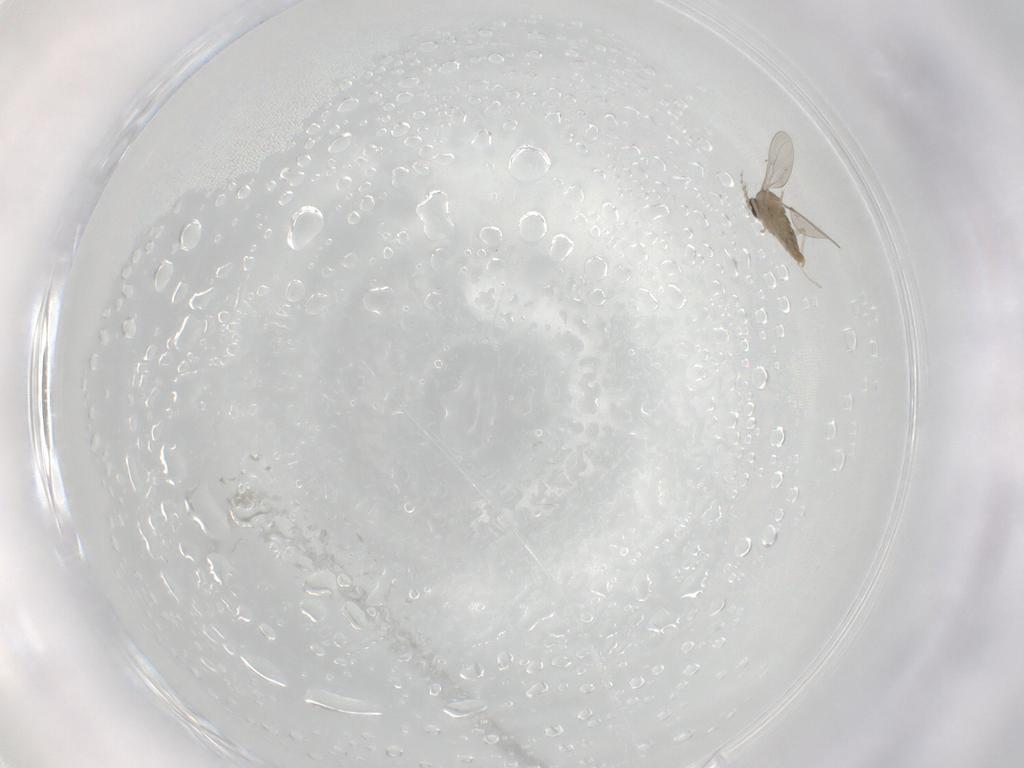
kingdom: Animalia
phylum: Arthropoda
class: Insecta
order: Diptera
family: Cecidomyiidae
